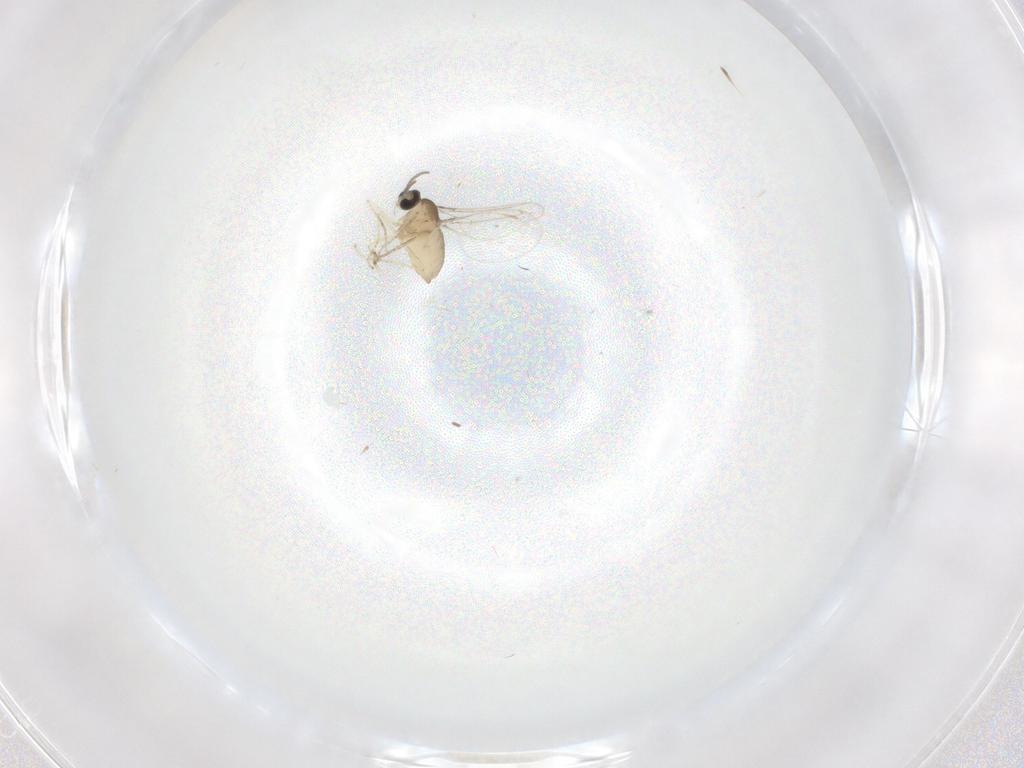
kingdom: Animalia
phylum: Arthropoda
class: Insecta
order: Diptera
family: Cecidomyiidae
